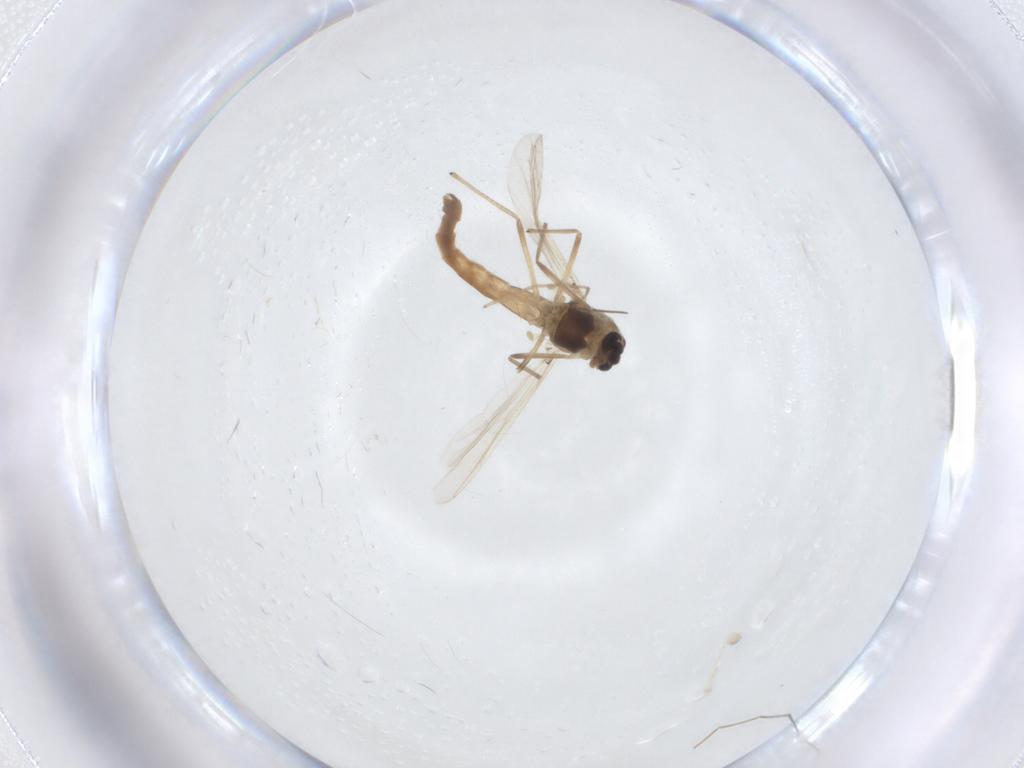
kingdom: Animalia
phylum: Arthropoda
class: Insecta
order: Diptera
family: Chironomidae
